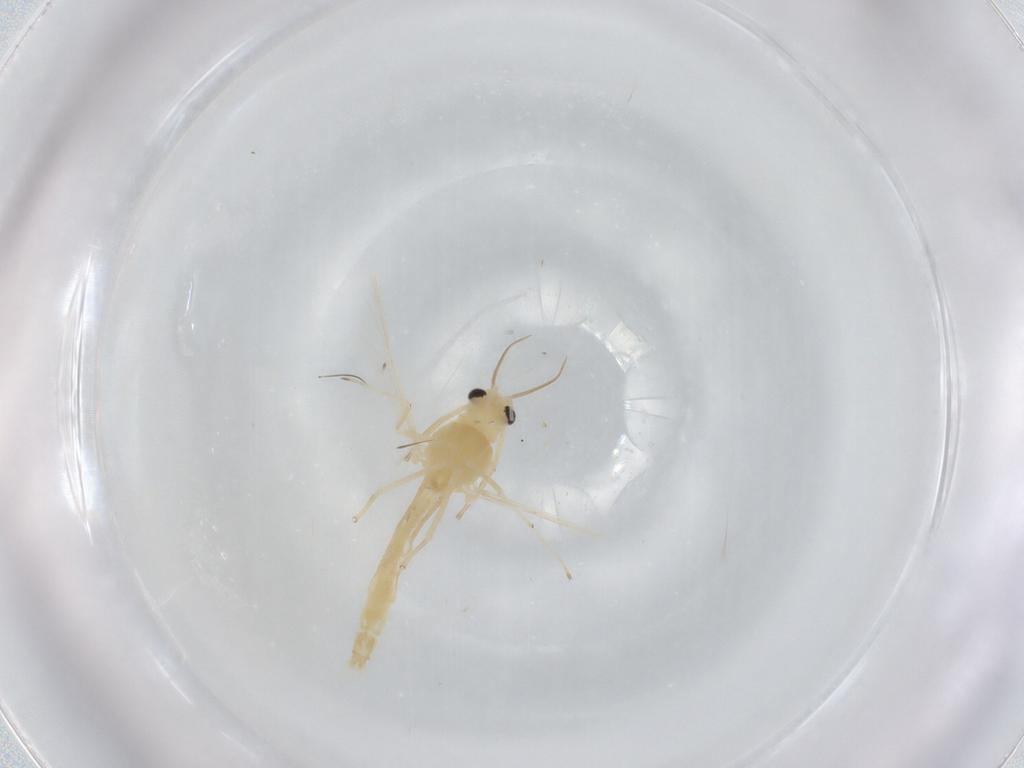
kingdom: Animalia
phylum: Arthropoda
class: Insecta
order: Diptera
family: Chironomidae
